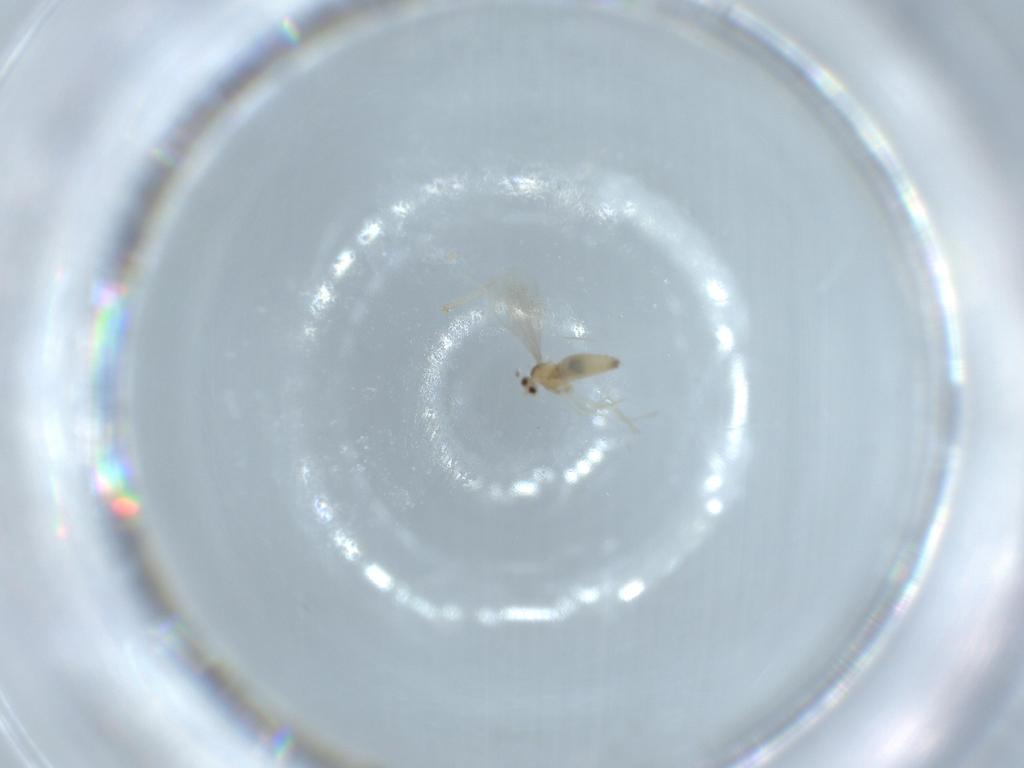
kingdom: Animalia
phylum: Arthropoda
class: Insecta
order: Diptera
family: Cecidomyiidae
